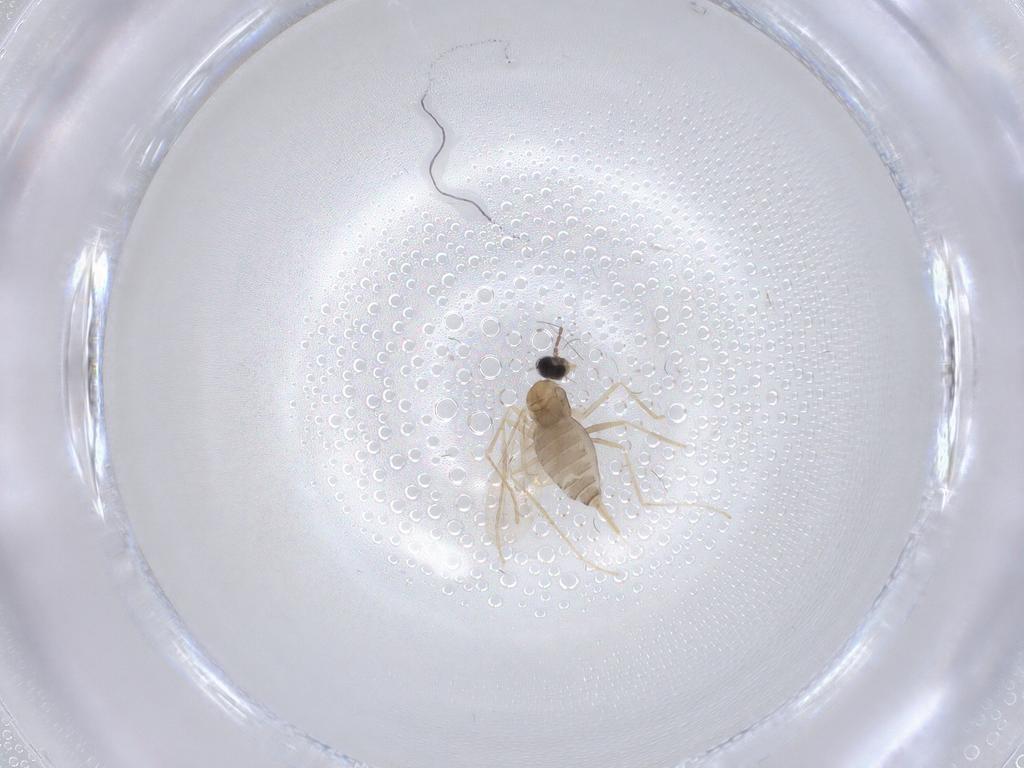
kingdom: Animalia
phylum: Arthropoda
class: Insecta
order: Diptera
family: Cecidomyiidae
